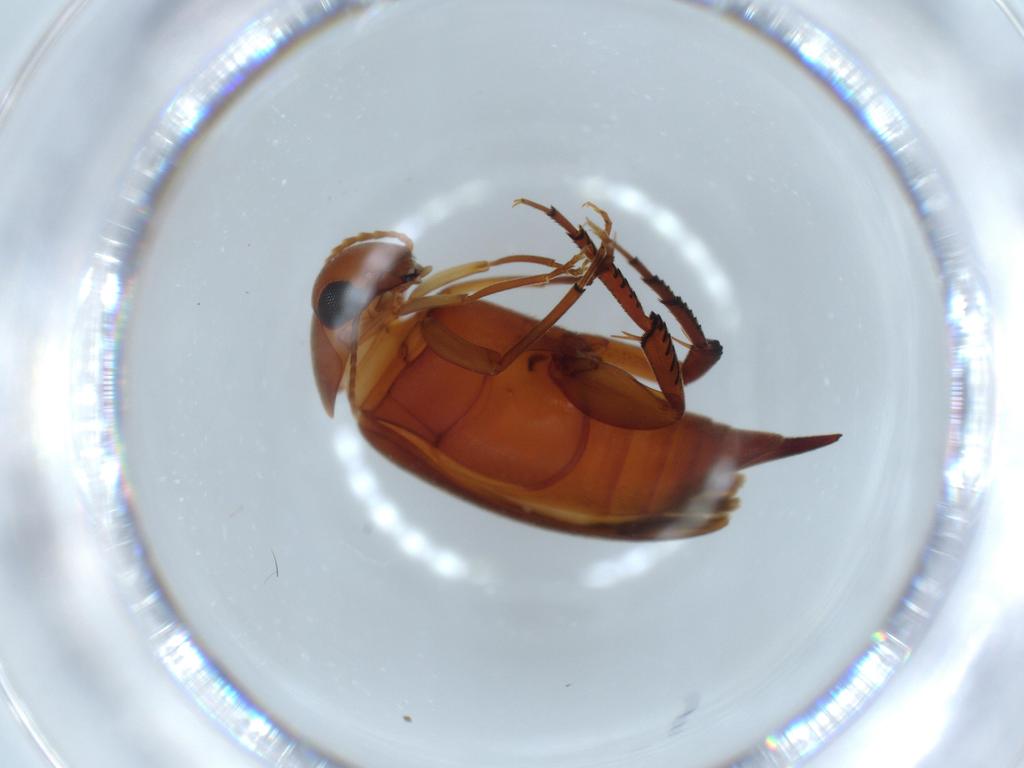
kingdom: Animalia
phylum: Arthropoda
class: Insecta
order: Coleoptera
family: Mordellidae
